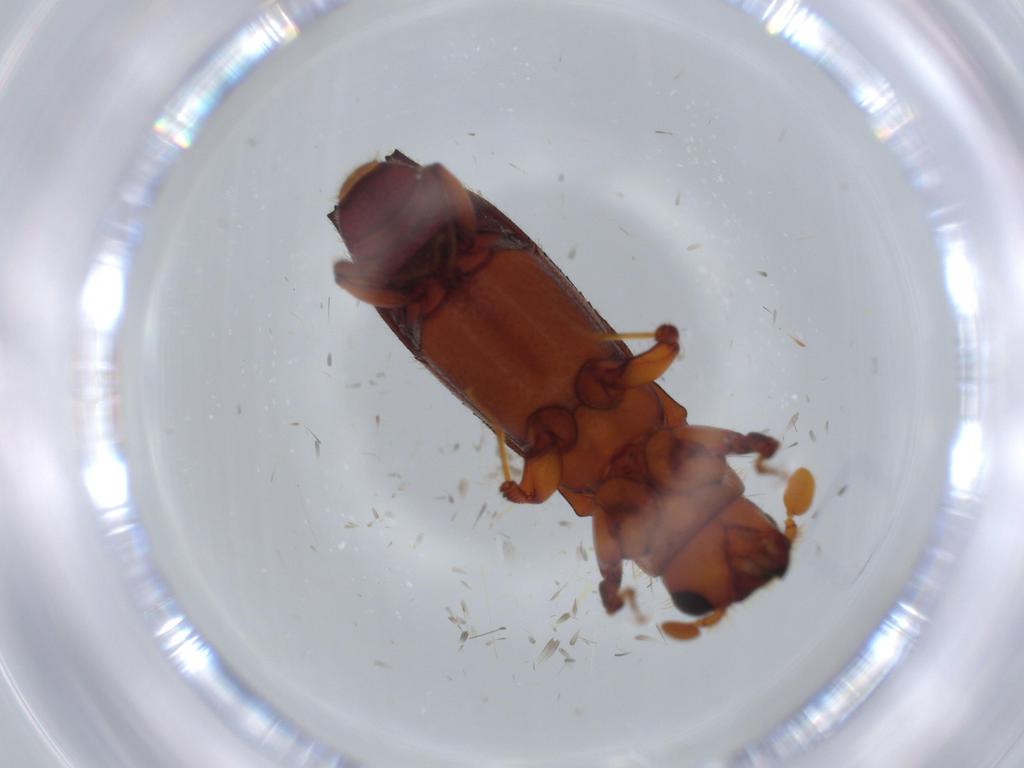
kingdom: Animalia
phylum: Arthropoda
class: Insecta
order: Coleoptera
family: Curculionidae
